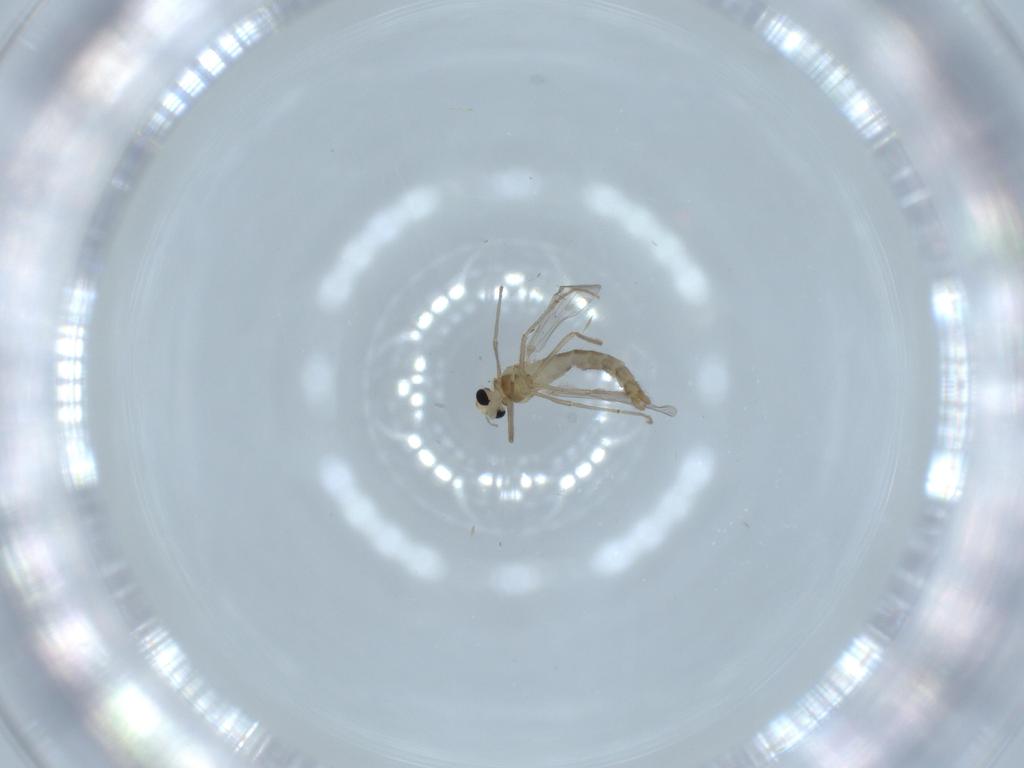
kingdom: Animalia
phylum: Arthropoda
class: Insecta
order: Diptera
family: Chironomidae
